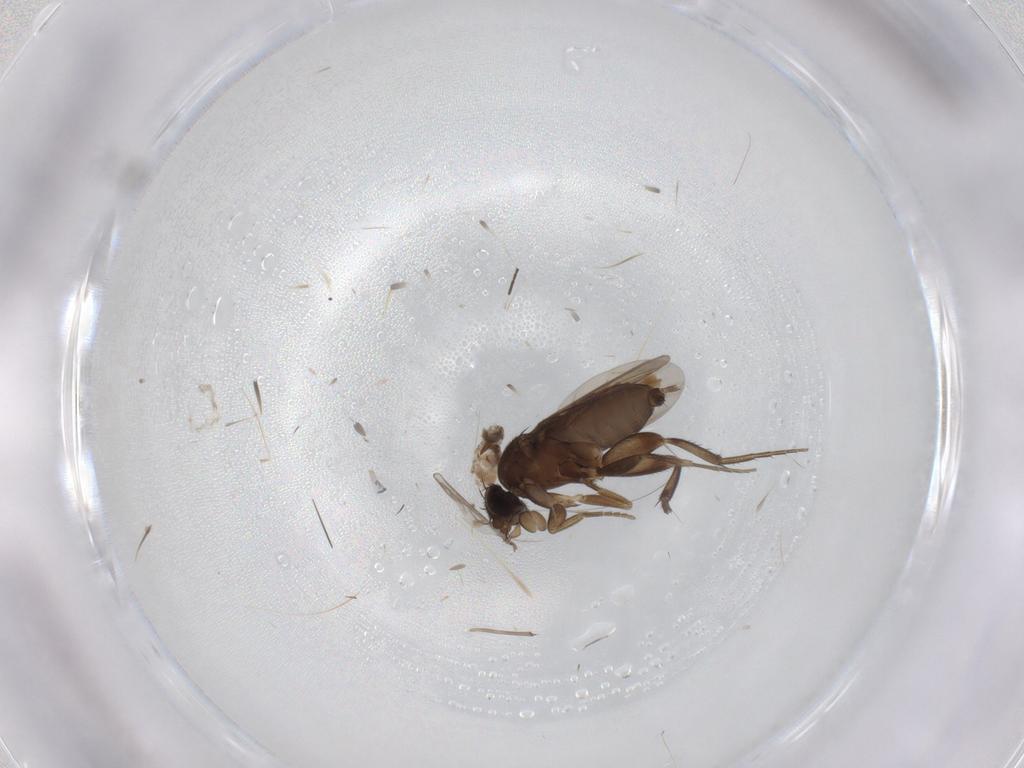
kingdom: Animalia
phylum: Arthropoda
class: Insecta
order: Diptera
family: Phoridae
